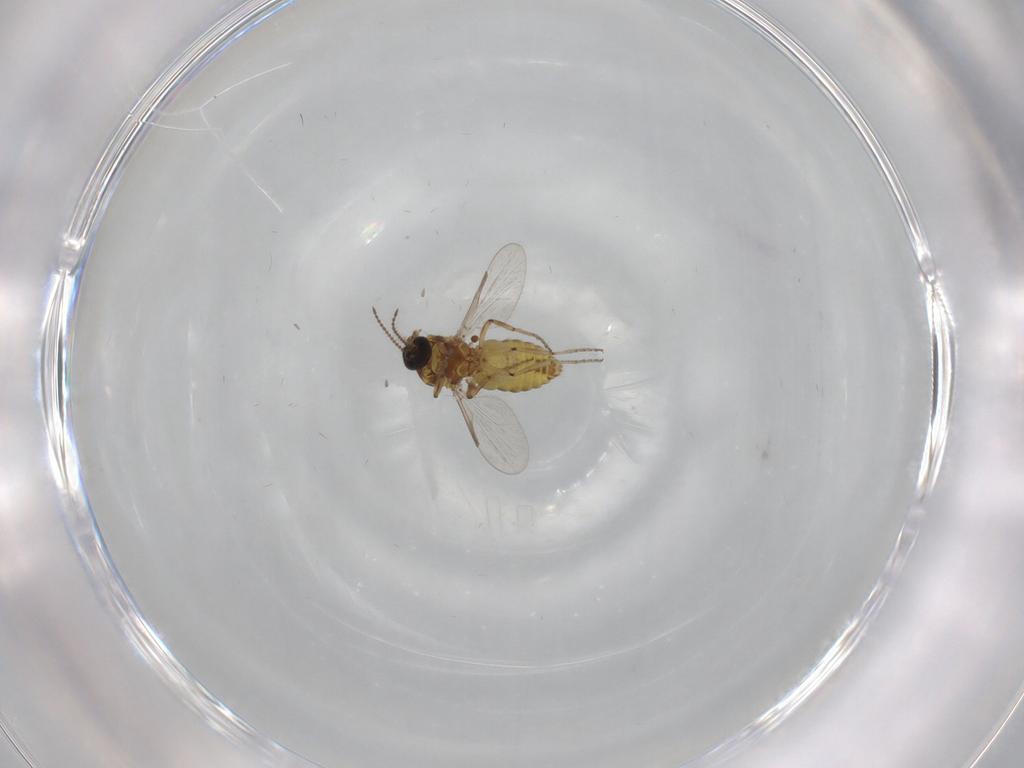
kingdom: Animalia
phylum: Arthropoda
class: Insecta
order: Diptera
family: Ceratopogonidae
